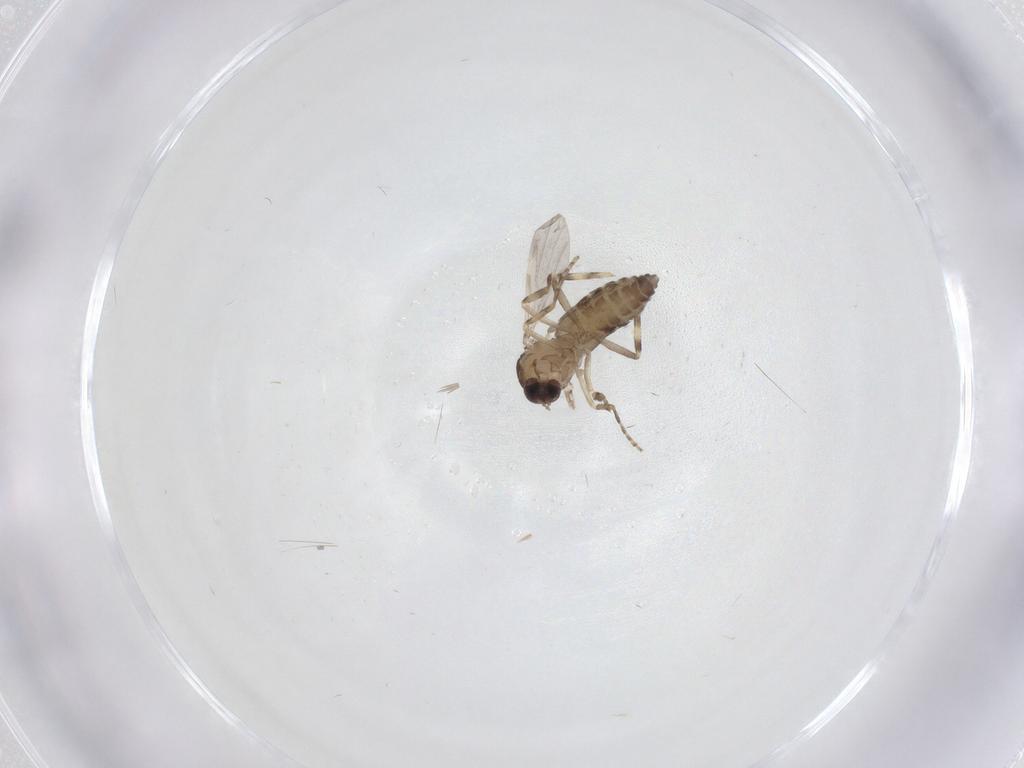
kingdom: Animalia
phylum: Arthropoda
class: Insecta
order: Diptera
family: Ceratopogonidae
